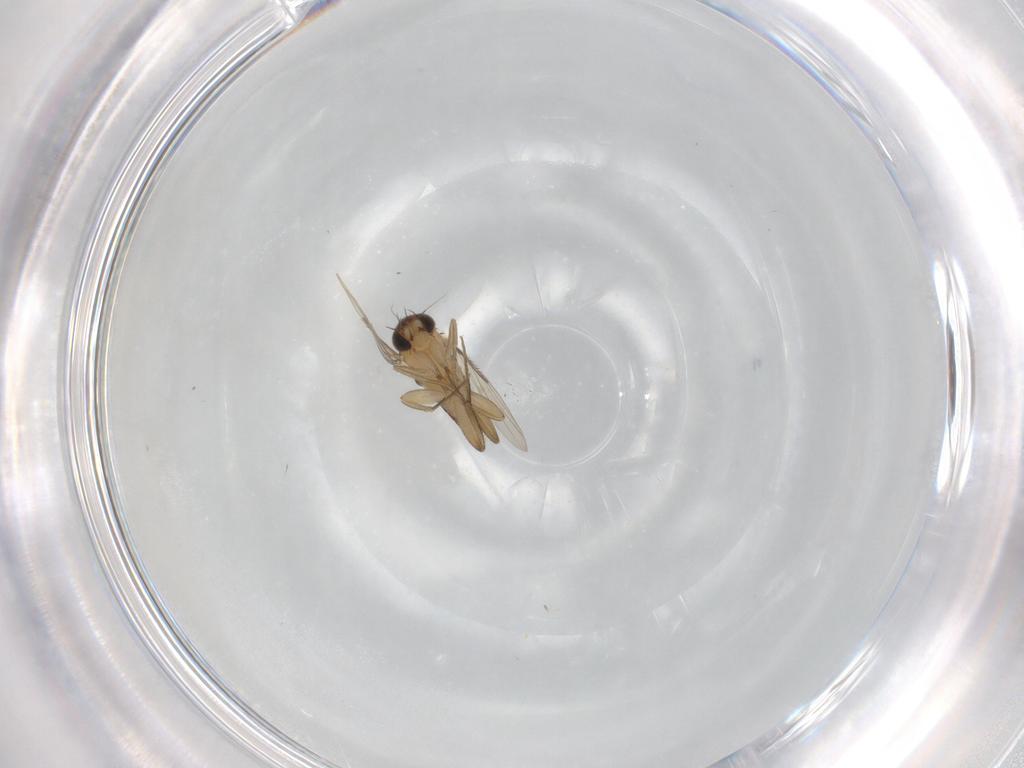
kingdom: Animalia
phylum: Arthropoda
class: Insecta
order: Diptera
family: Phoridae
